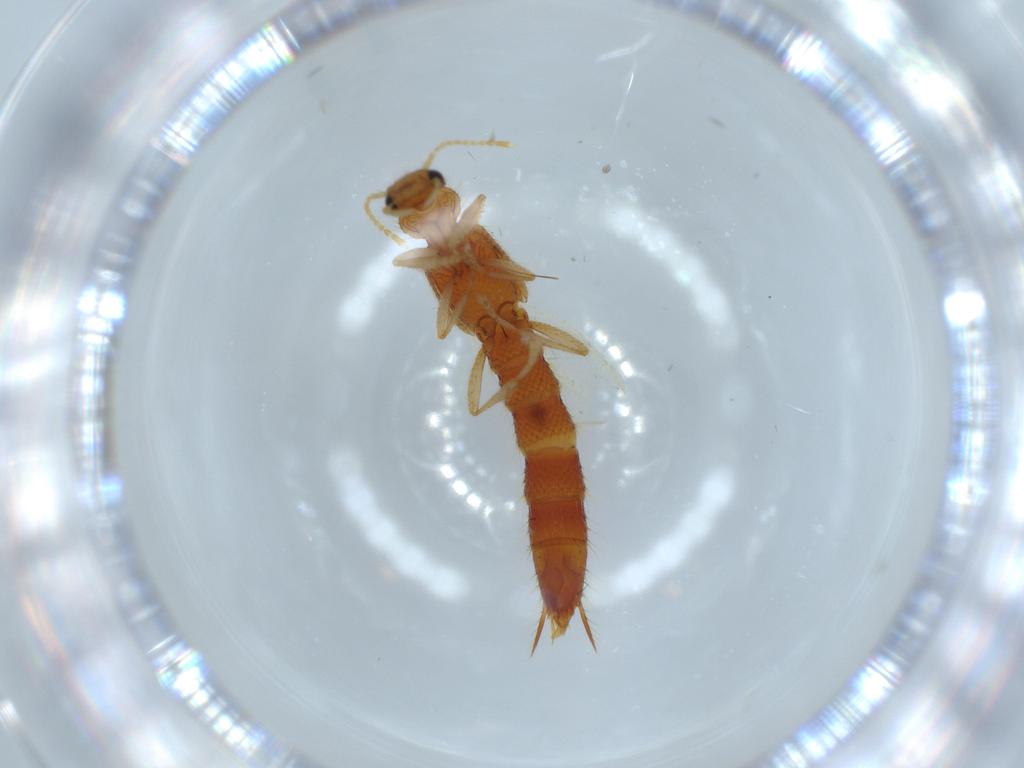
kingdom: Animalia
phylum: Arthropoda
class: Insecta
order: Coleoptera
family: Staphylinidae
